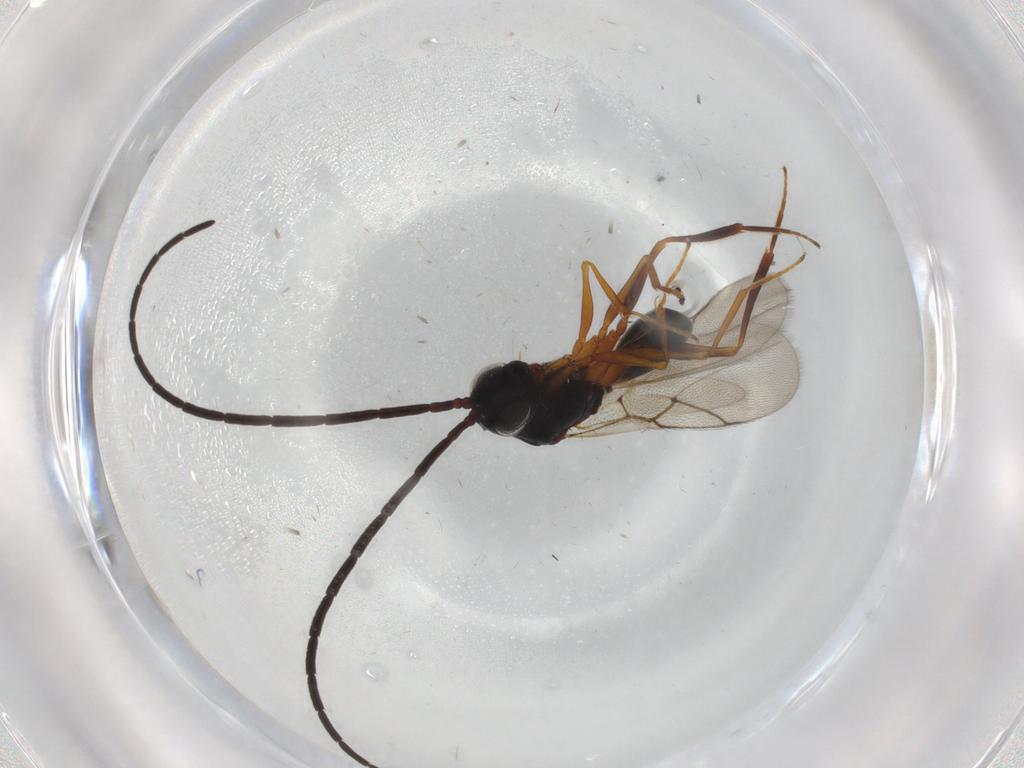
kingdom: Animalia
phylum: Arthropoda
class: Insecta
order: Hymenoptera
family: Figitidae
